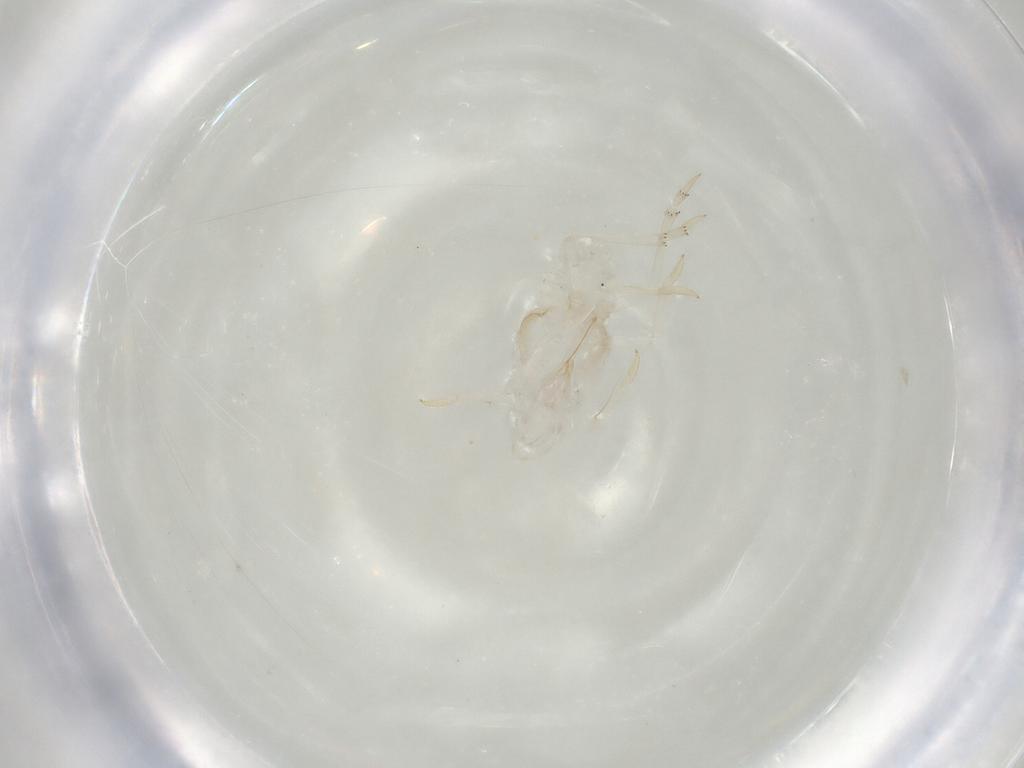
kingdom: Animalia
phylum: Arthropoda
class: Insecta
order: Hemiptera
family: Flatidae
